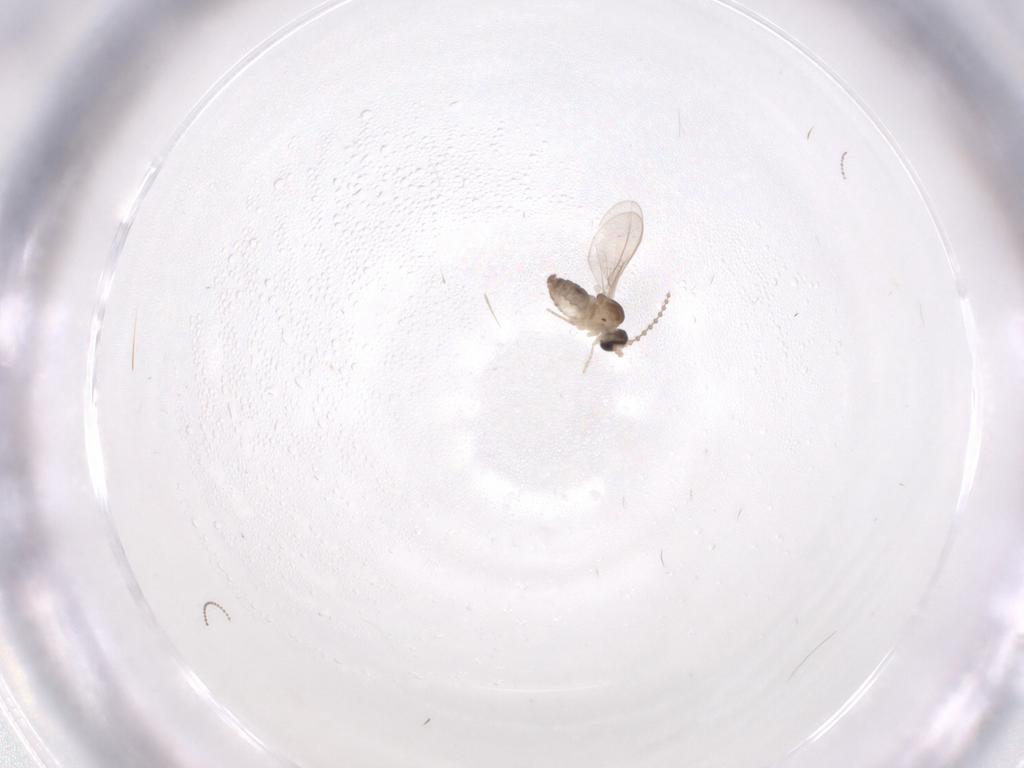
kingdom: Animalia
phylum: Arthropoda
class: Insecta
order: Diptera
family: Cecidomyiidae
